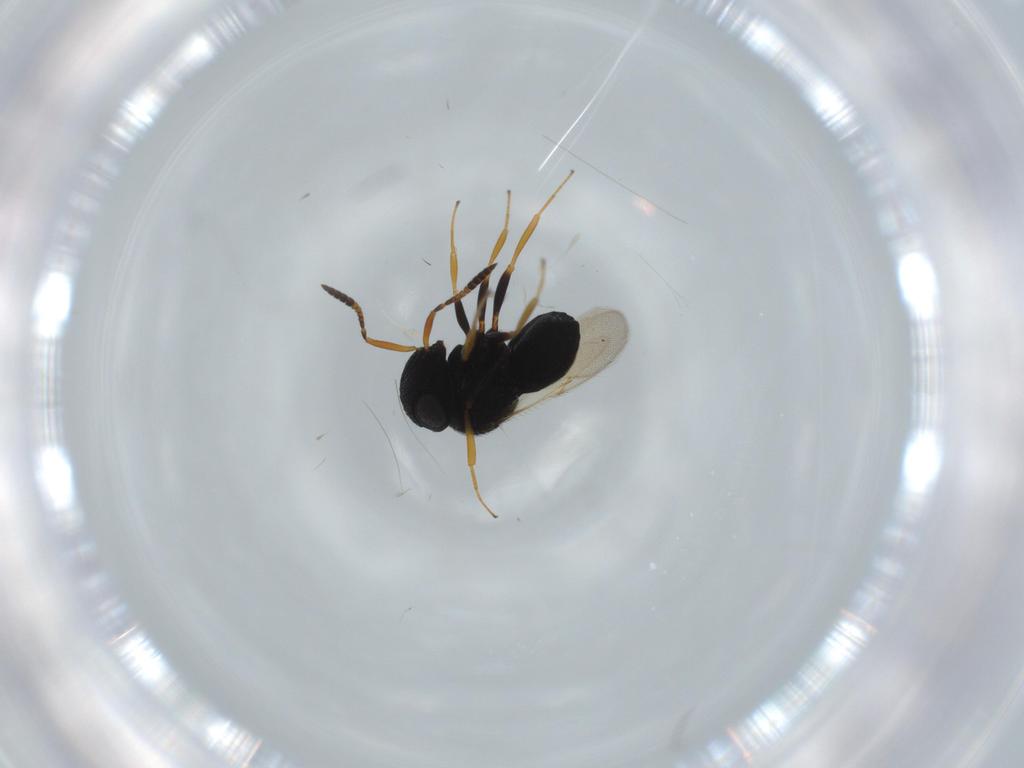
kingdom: Animalia
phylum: Arthropoda
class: Insecta
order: Hymenoptera
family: Scelionidae
